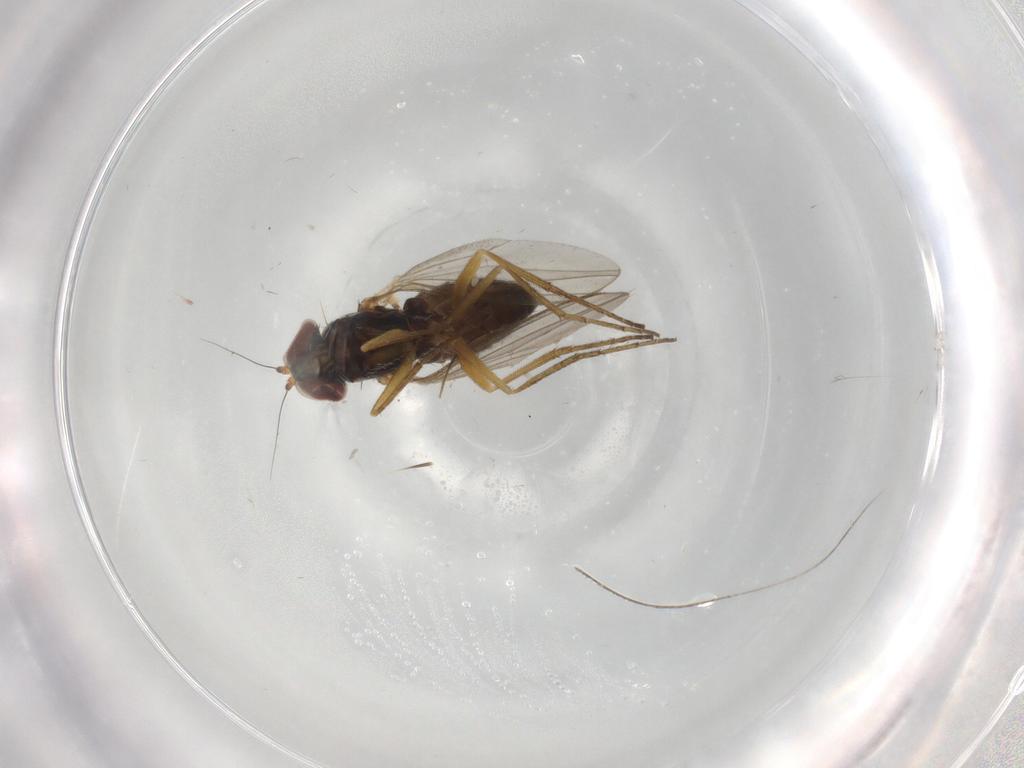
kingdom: Animalia
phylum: Arthropoda
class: Insecta
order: Diptera
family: Dolichopodidae
